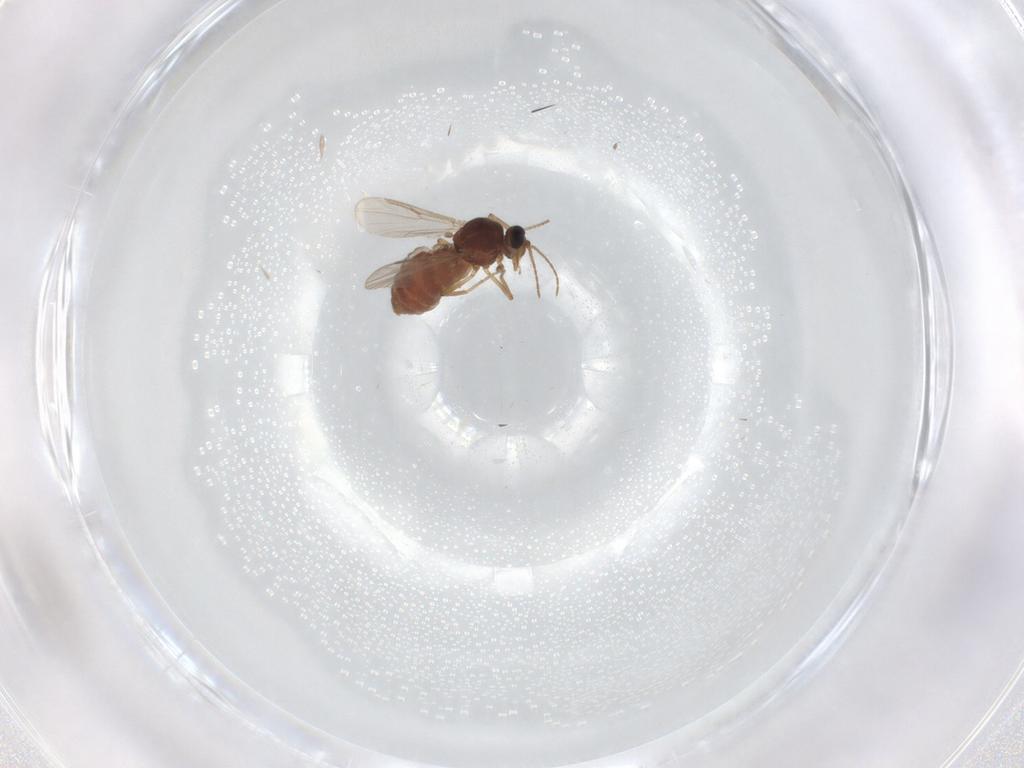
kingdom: Animalia
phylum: Arthropoda
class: Insecta
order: Diptera
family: Ceratopogonidae
